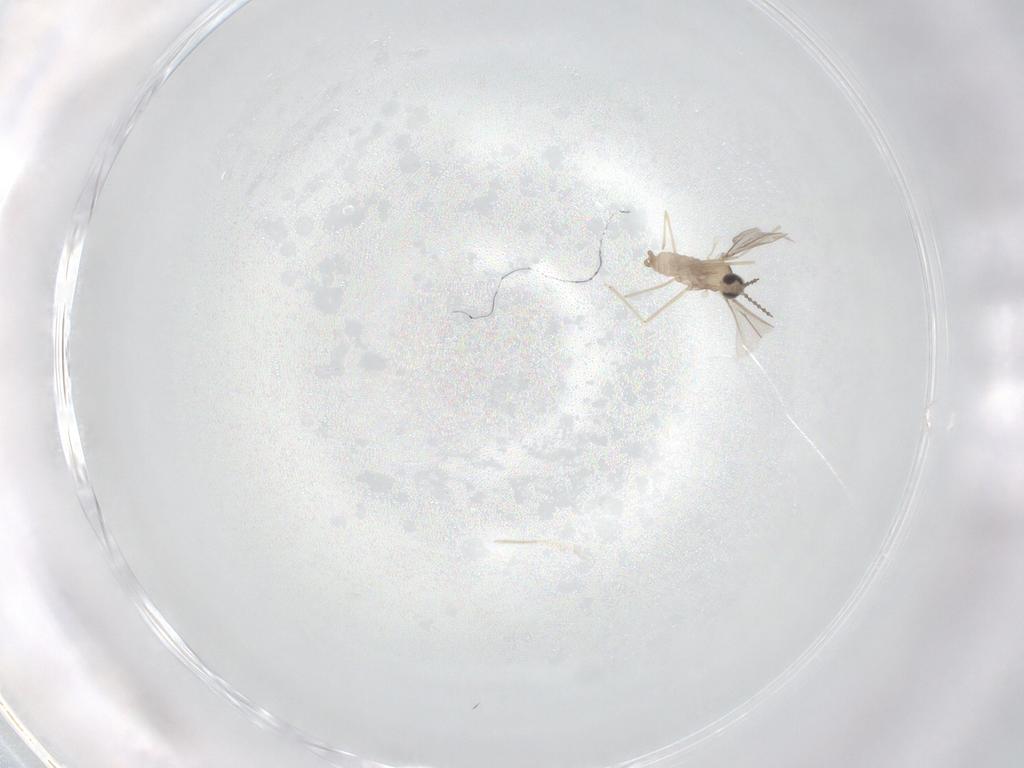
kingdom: Animalia
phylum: Arthropoda
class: Insecta
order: Diptera
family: Cecidomyiidae
